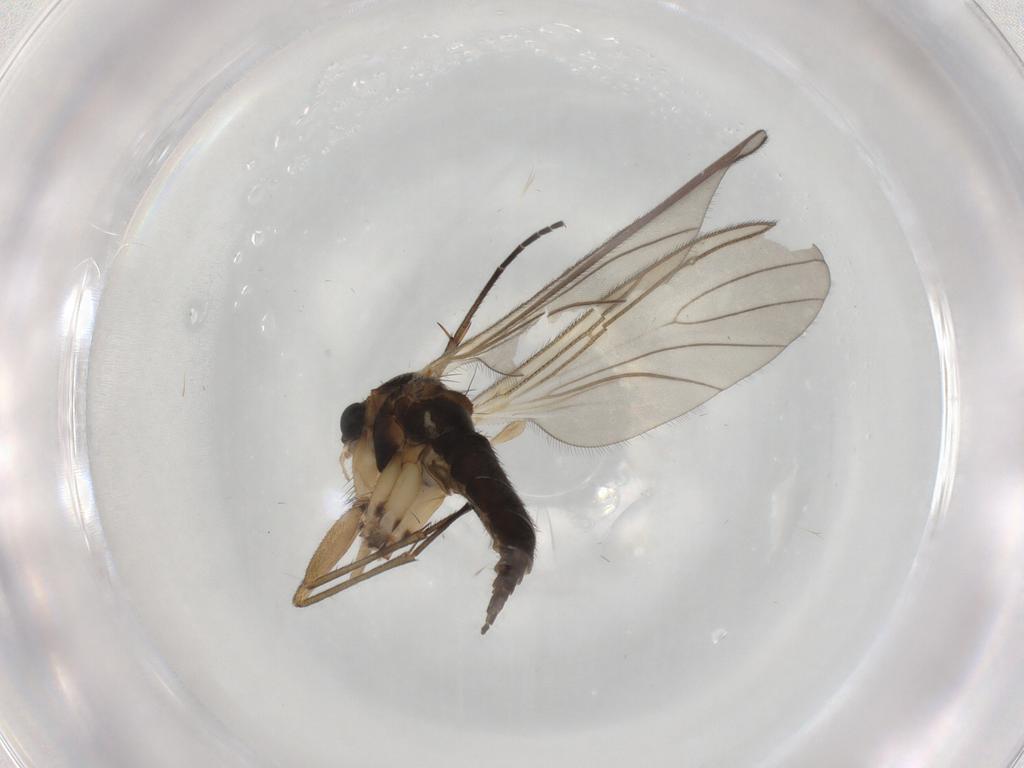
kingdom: Animalia
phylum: Arthropoda
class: Insecta
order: Diptera
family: Sciaridae
